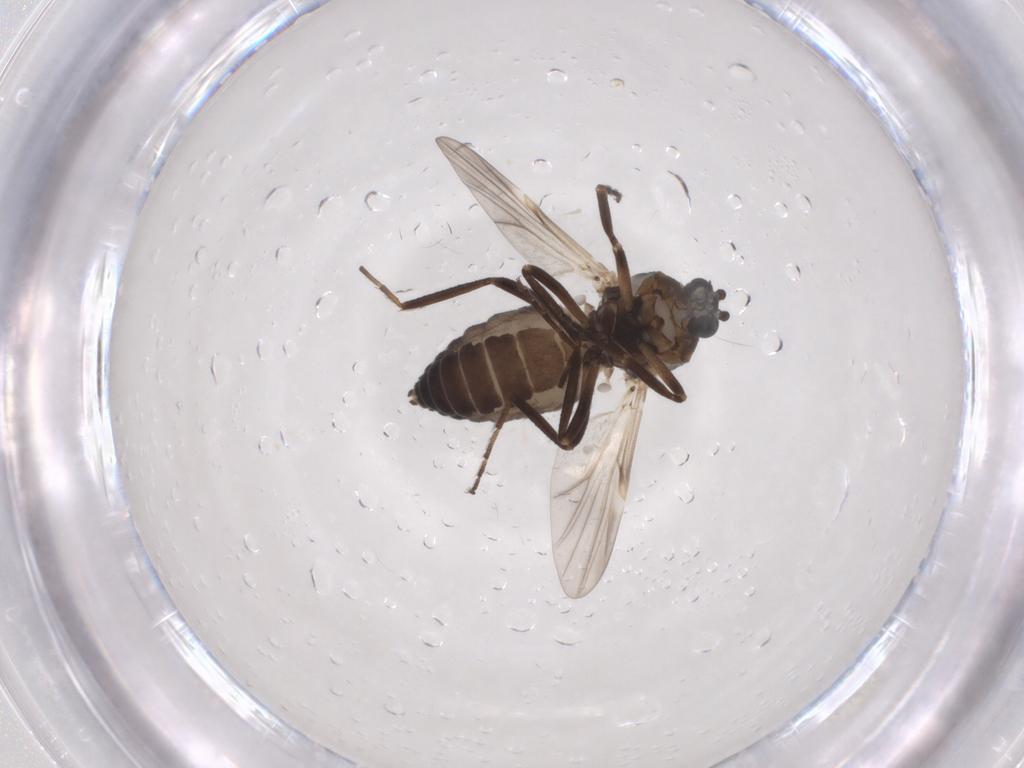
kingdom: Animalia
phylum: Arthropoda
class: Insecta
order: Diptera
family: Ceratopogonidae
